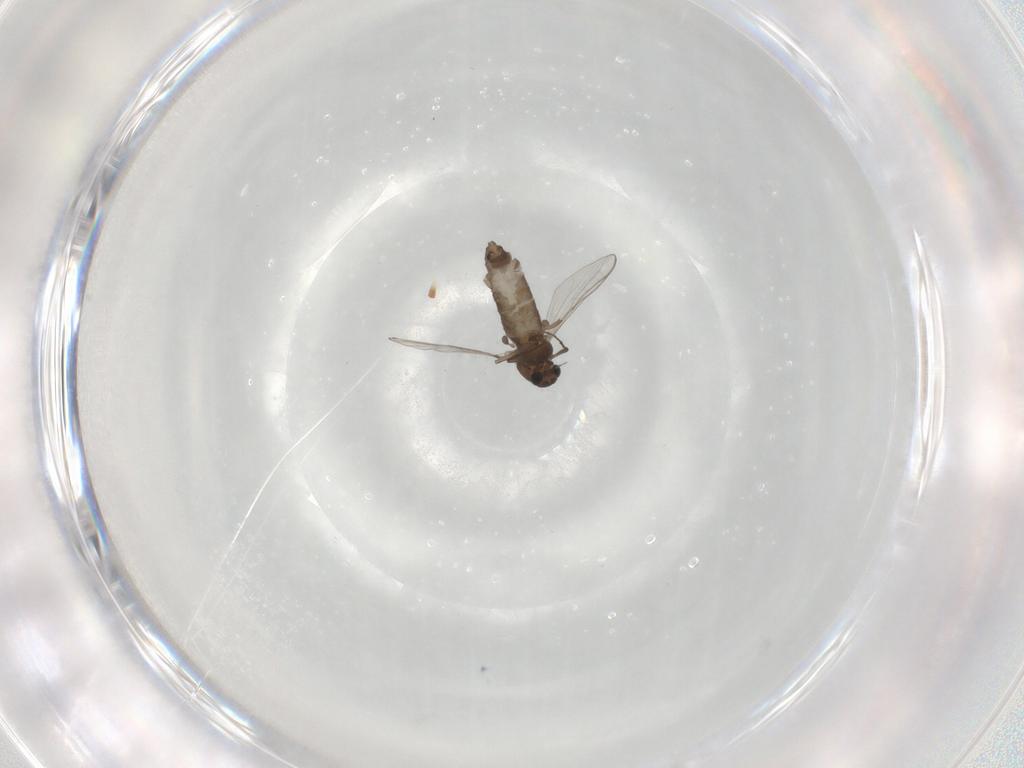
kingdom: Animalia
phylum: Arthropoda
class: Insecta
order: Diptera
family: Chironomidae
